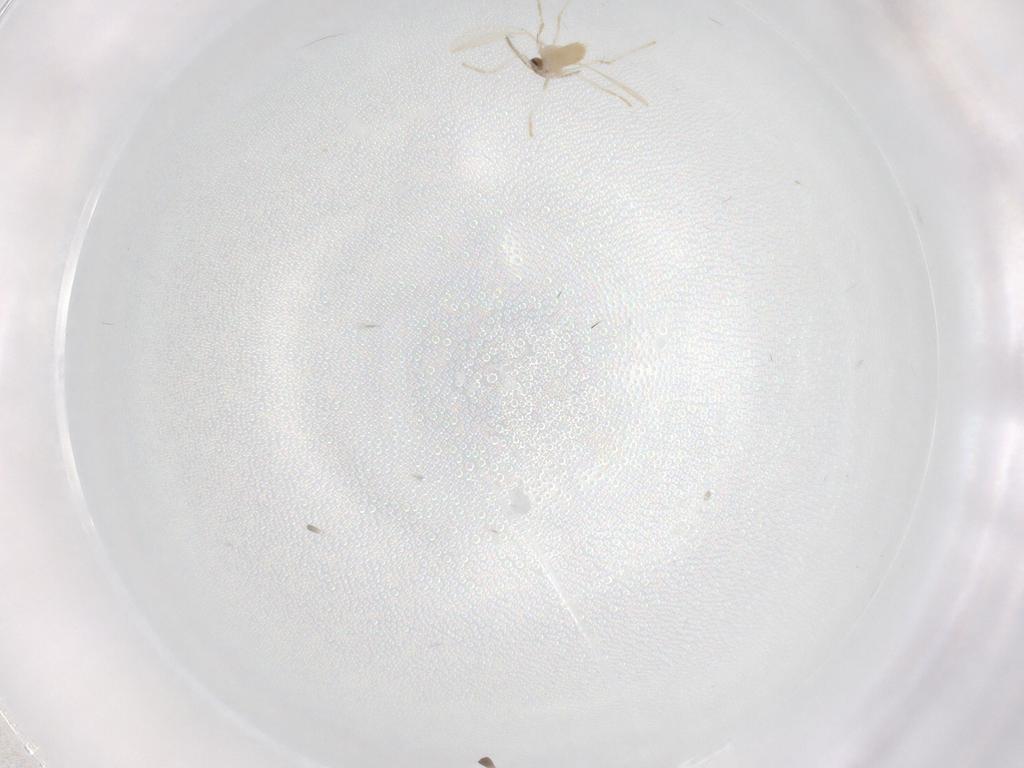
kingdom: Animalia
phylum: Arthropoda
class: Insecta
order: Diptera
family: Cecidomyiidae
